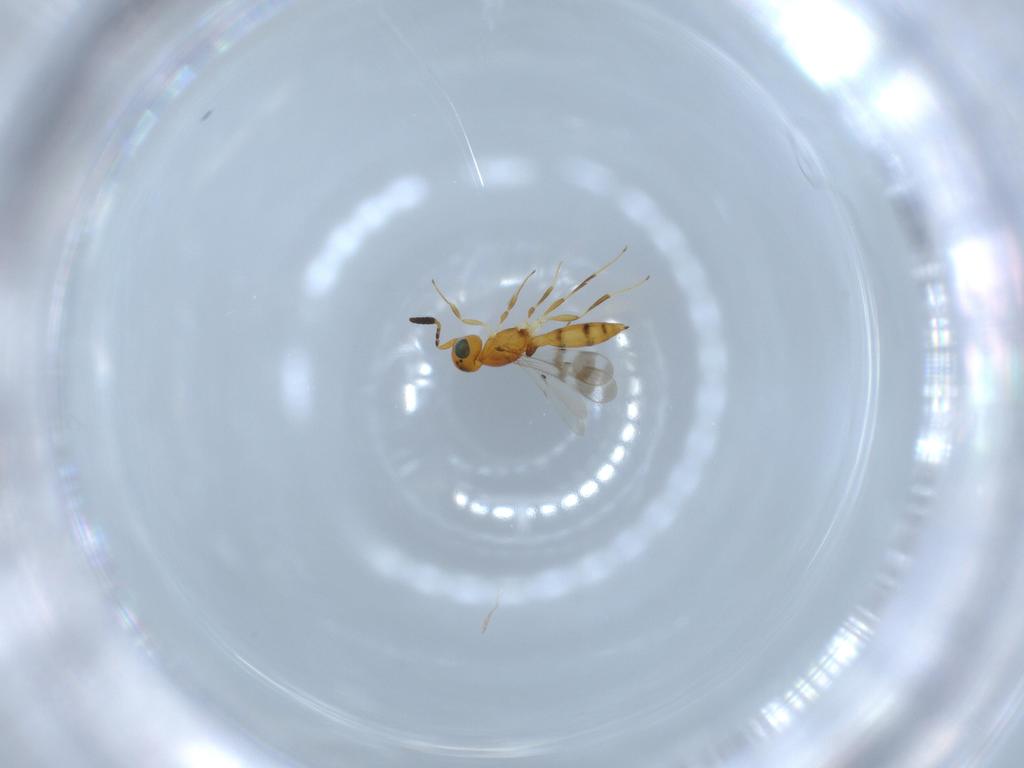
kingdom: Animalia
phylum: Arthropoda
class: Insecta
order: Hymenoptera
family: Scelionidae
